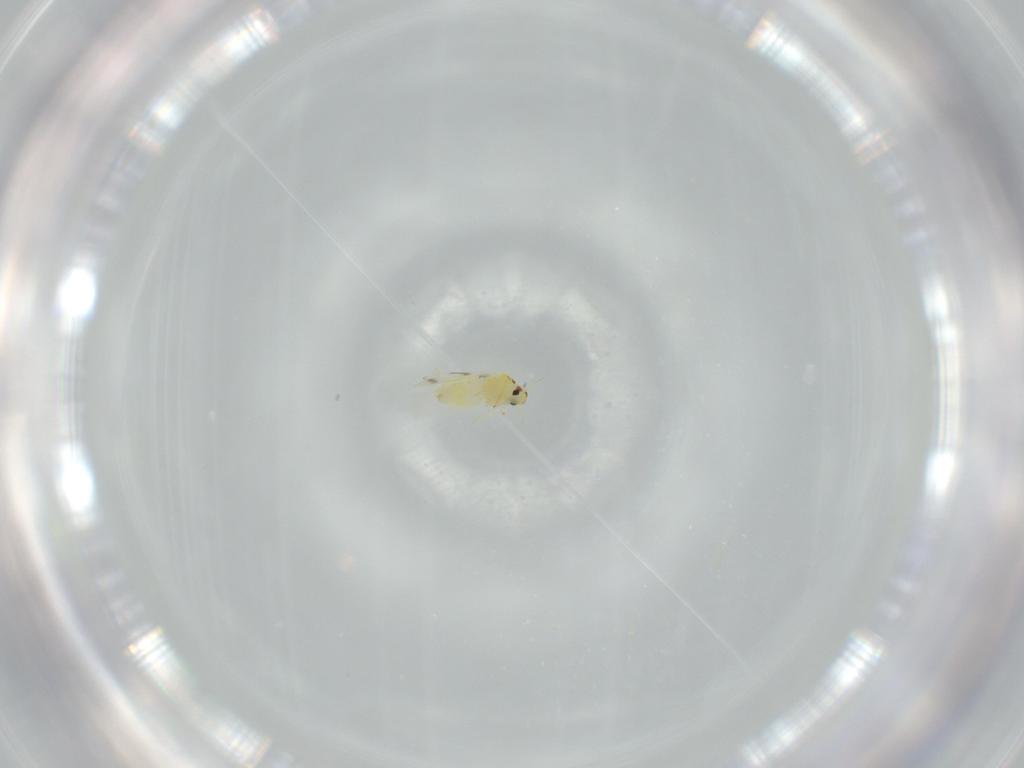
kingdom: Animalia
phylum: Arthropoda
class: Insecta
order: Hemiptera
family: Aleyrodidae
